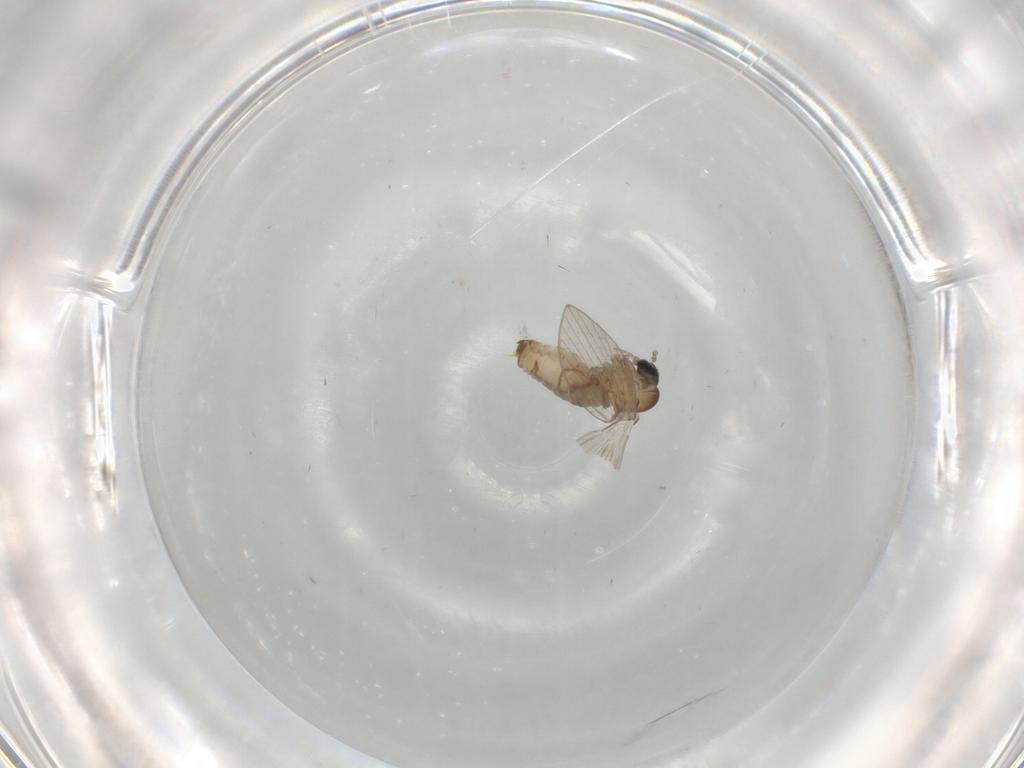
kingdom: Animalia
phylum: Arthropoda
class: Insecta
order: Diptera
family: Psychodidae
